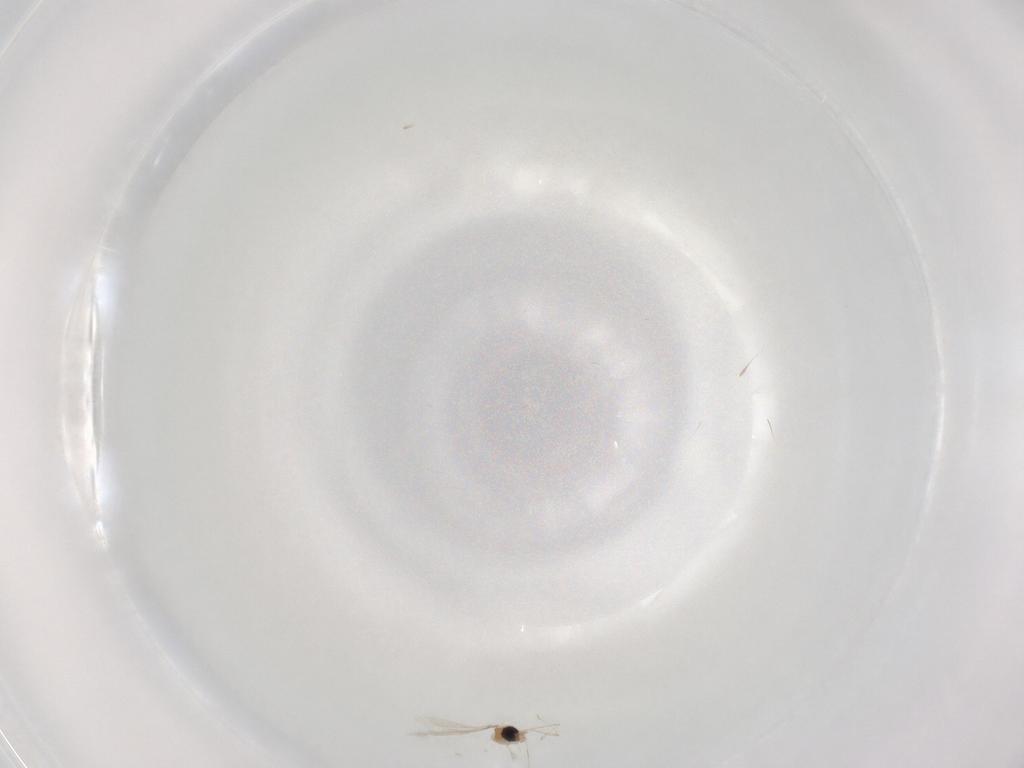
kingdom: Animalia
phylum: Arthropoda
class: Insecta
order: Diptera
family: Cecidomyiidae
